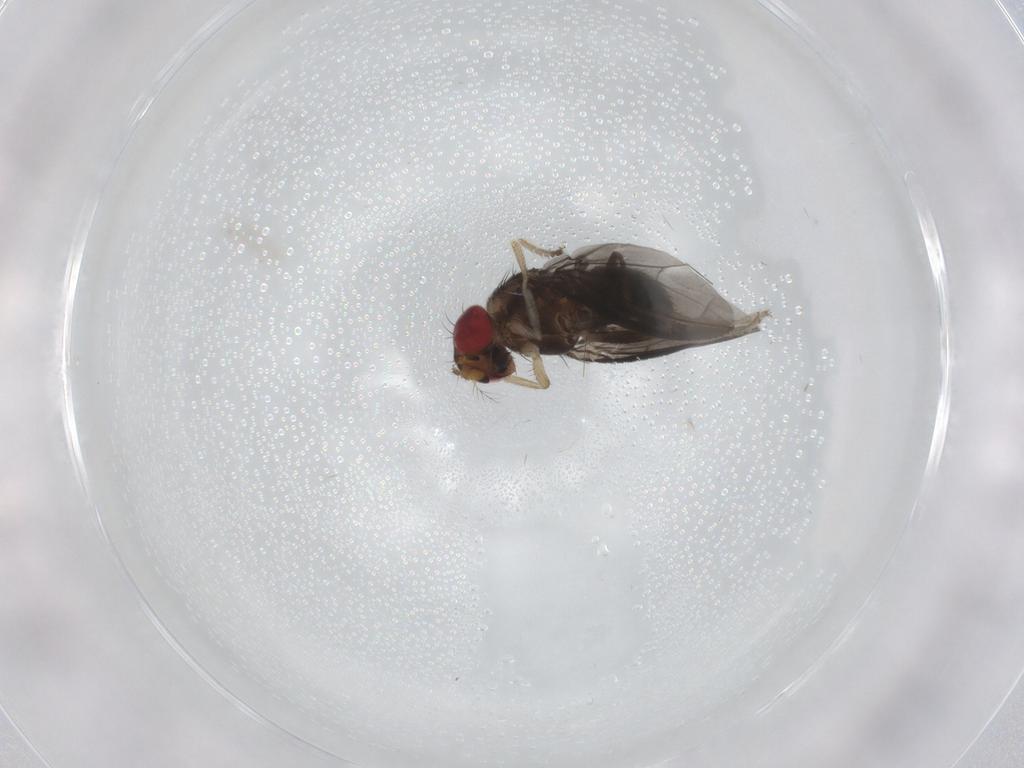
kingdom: Animalia
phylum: Arthropoda
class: Insecta
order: Diptera
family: Drosophilidae
